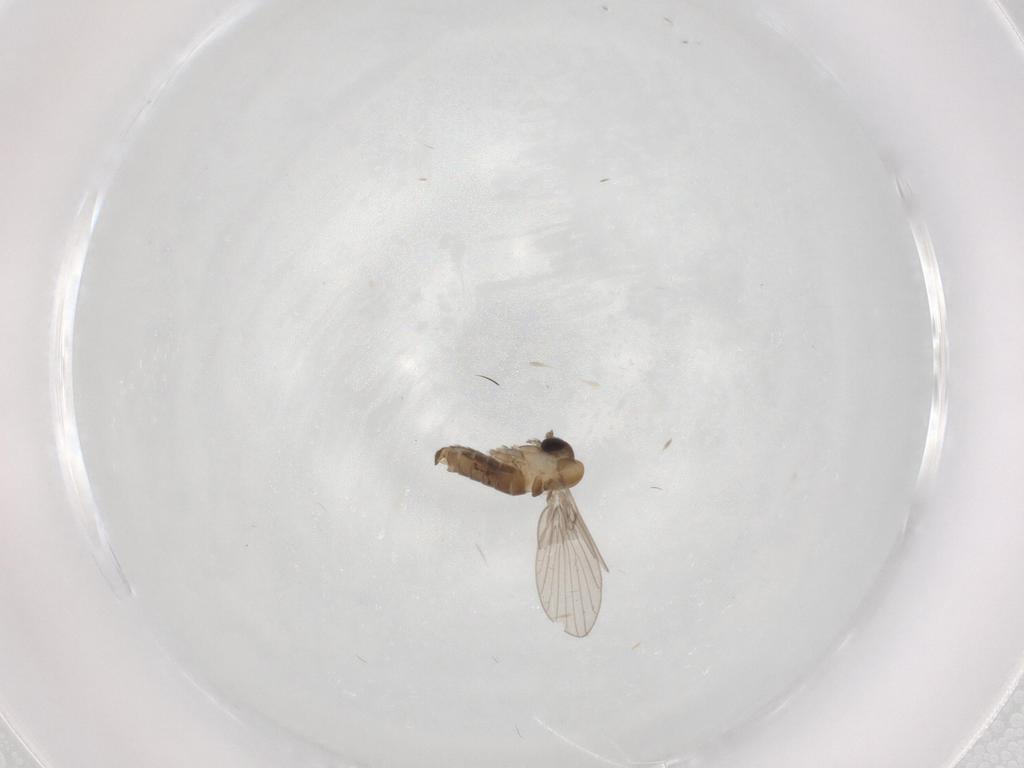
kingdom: Animalia
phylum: Arthropoda
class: Insecta
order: Diptera
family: Psychodidae
